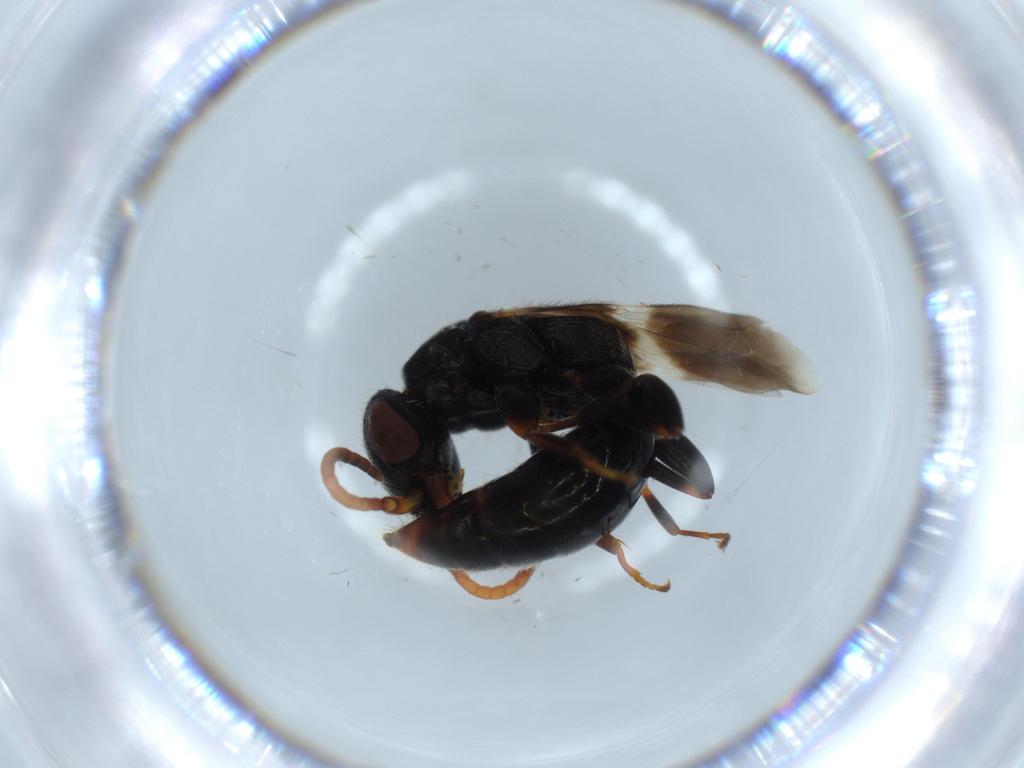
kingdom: Animalia
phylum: Arthropoda
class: Insecta
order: Hymenoptera
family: Bethylidae
